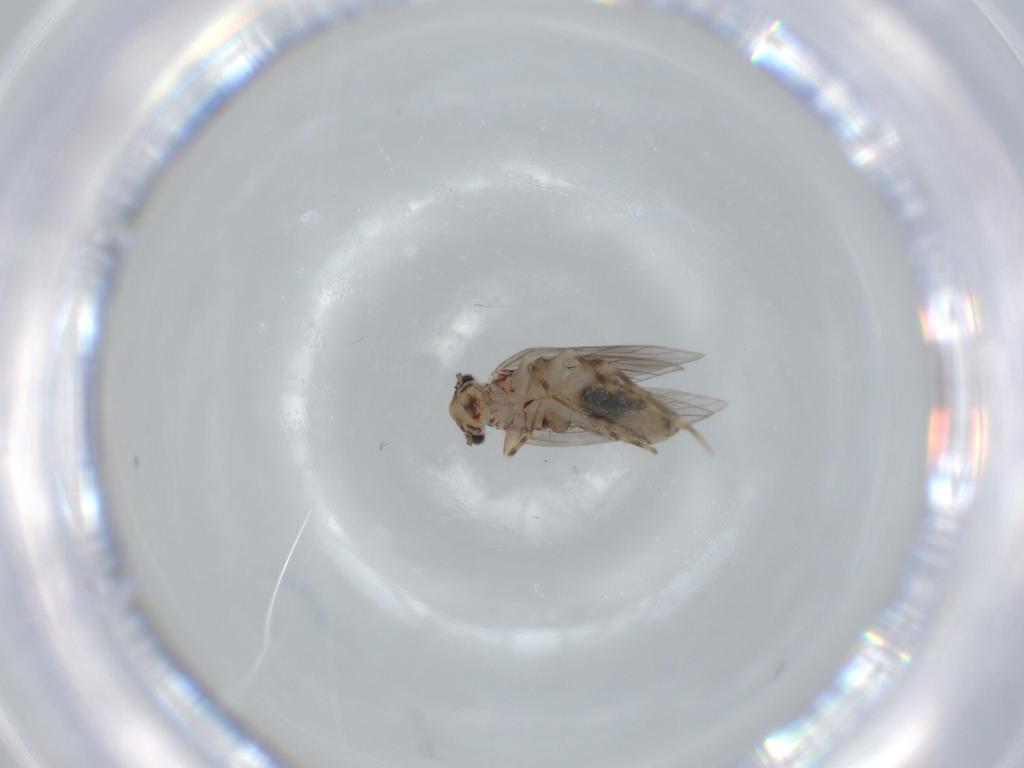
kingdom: Animalia
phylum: Arthropoda
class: Insecta
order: Psocodea
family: Lepidopsocidae
